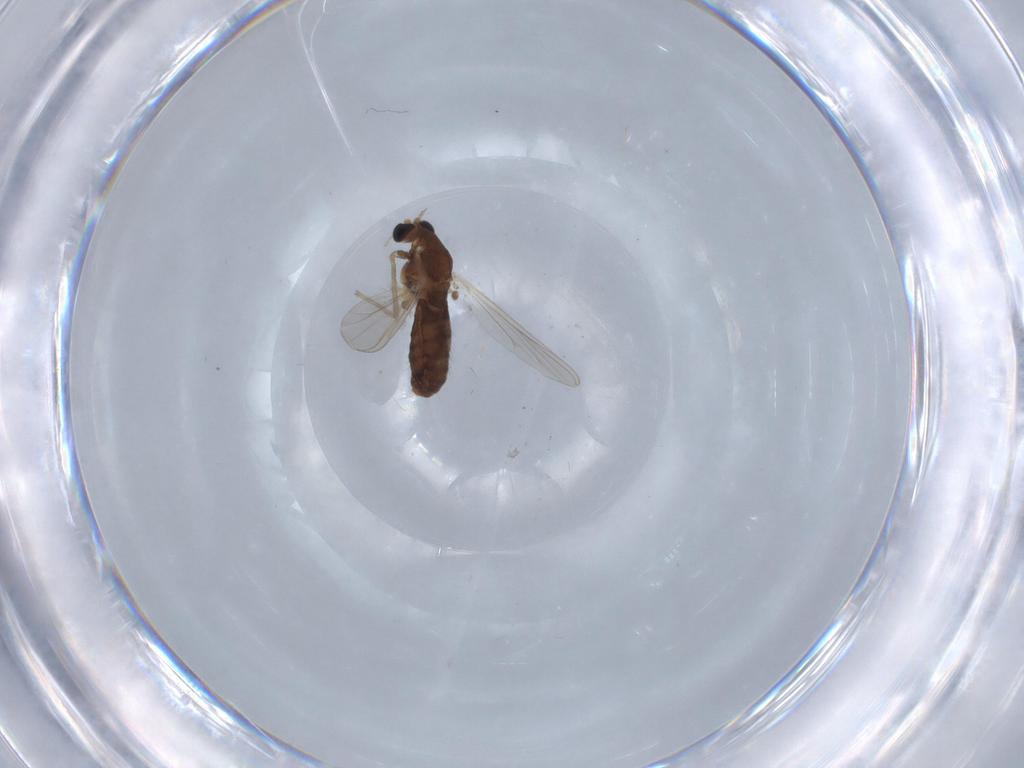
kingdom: Animalia
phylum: Arthropoda
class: Insecta
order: Diptera
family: Chironomidae
